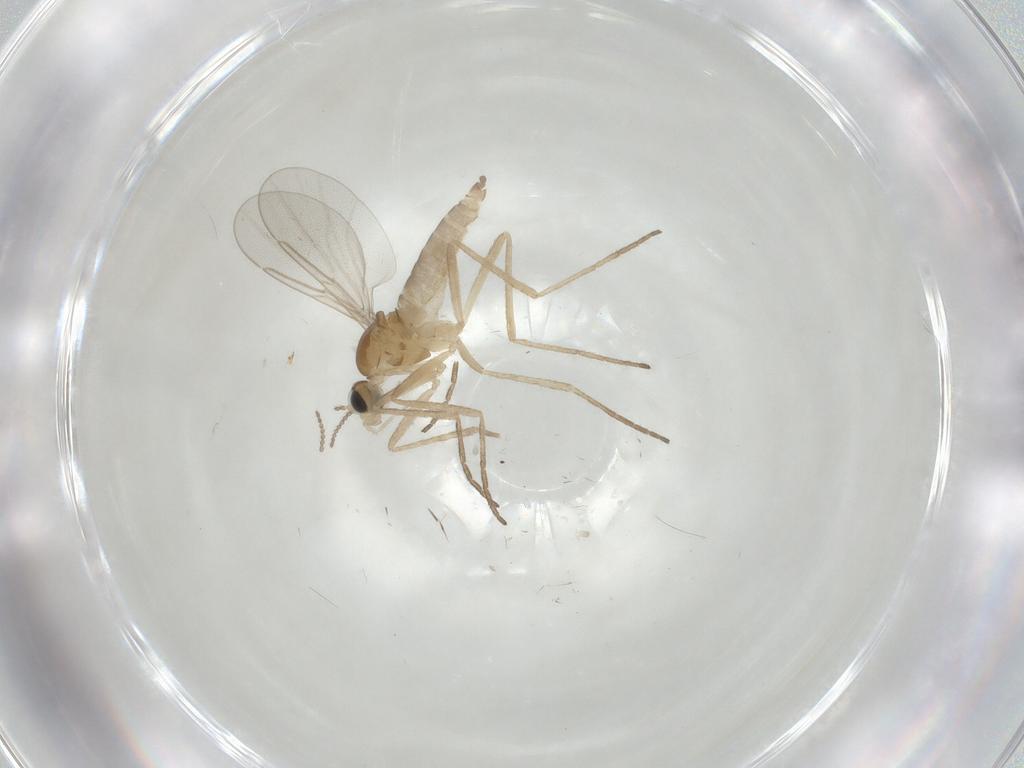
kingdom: Animalia
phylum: Arthropoda
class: Insecta
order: Diptera
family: Cecidomyiidae
